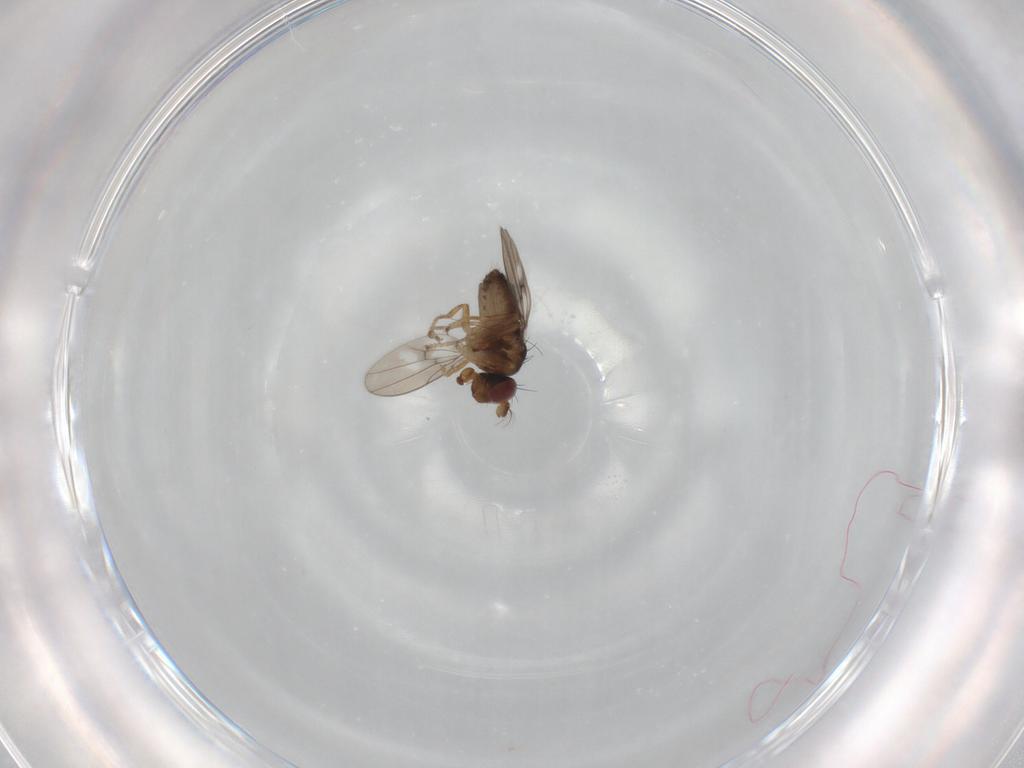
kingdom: Animalia
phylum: Arthropoda
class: Insecta
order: Diptera
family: Ephydridae
